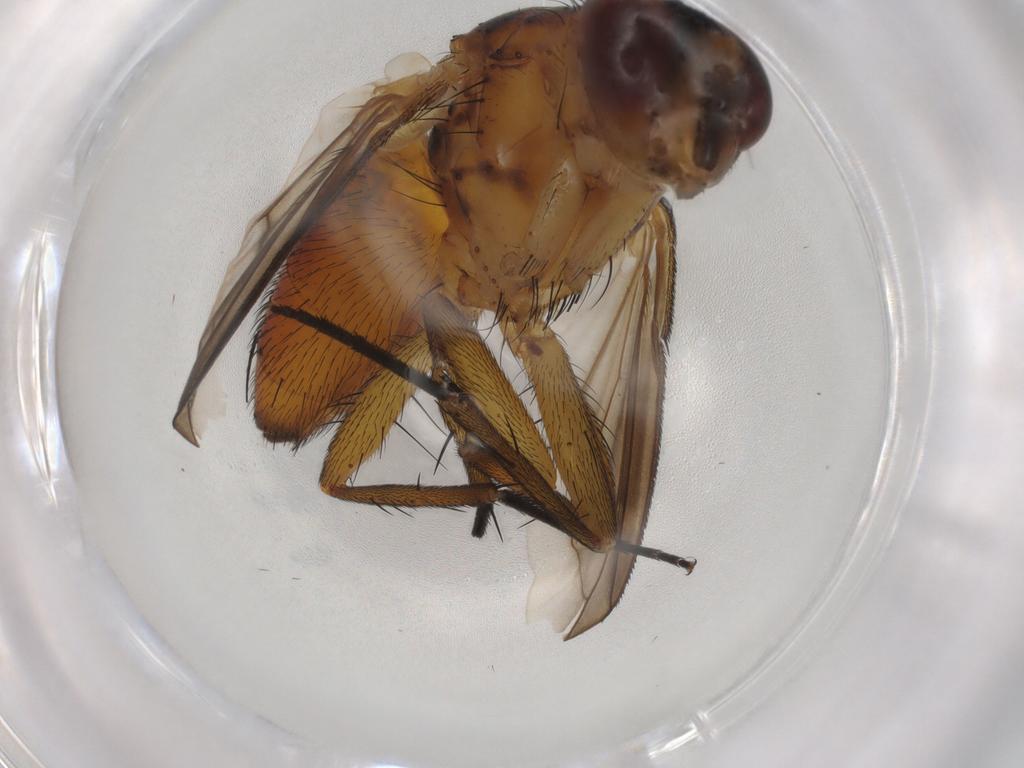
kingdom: Animalia
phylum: Arthropoda
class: Insecta
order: Diptera
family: Tachinidae
